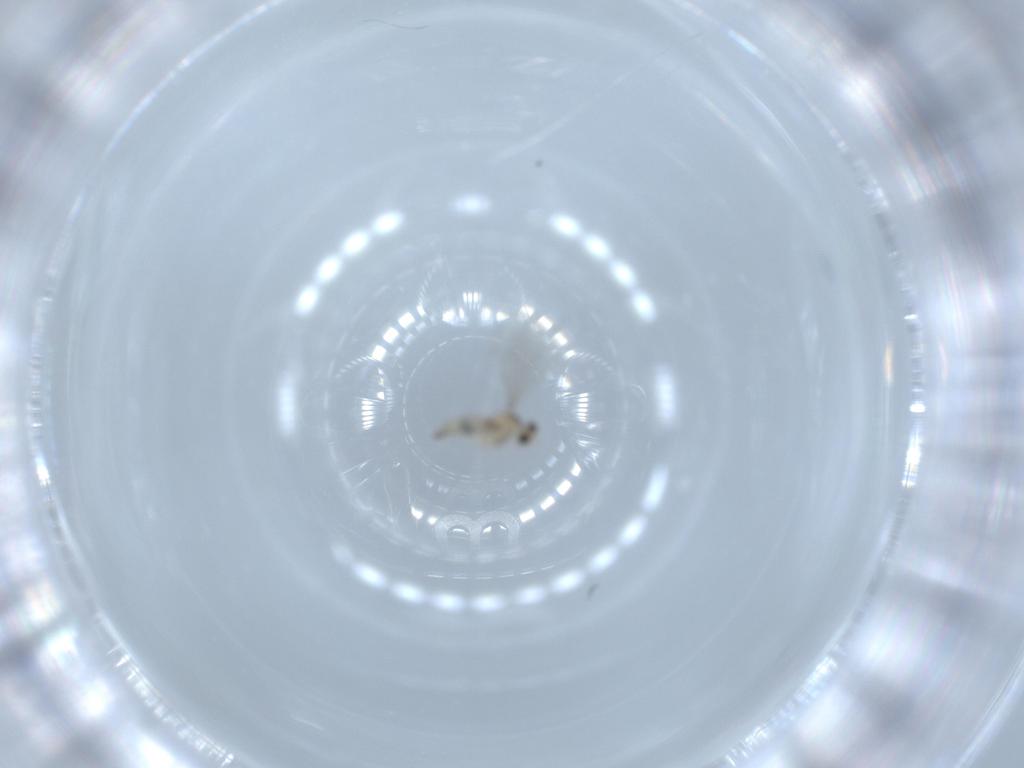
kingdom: Animalia
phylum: Arthropoda
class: Insecta
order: Diptera
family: Cecidomyiidae
